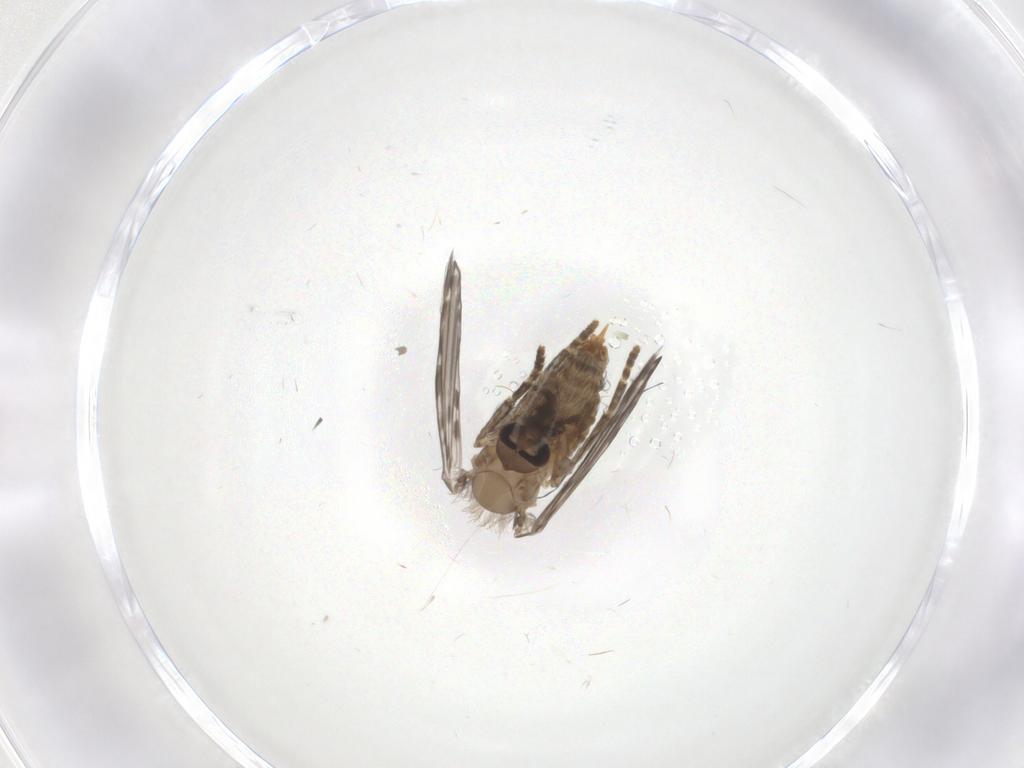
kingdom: Animalia
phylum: Arthropoda
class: Insecta
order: Diptera
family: Psychodidae
